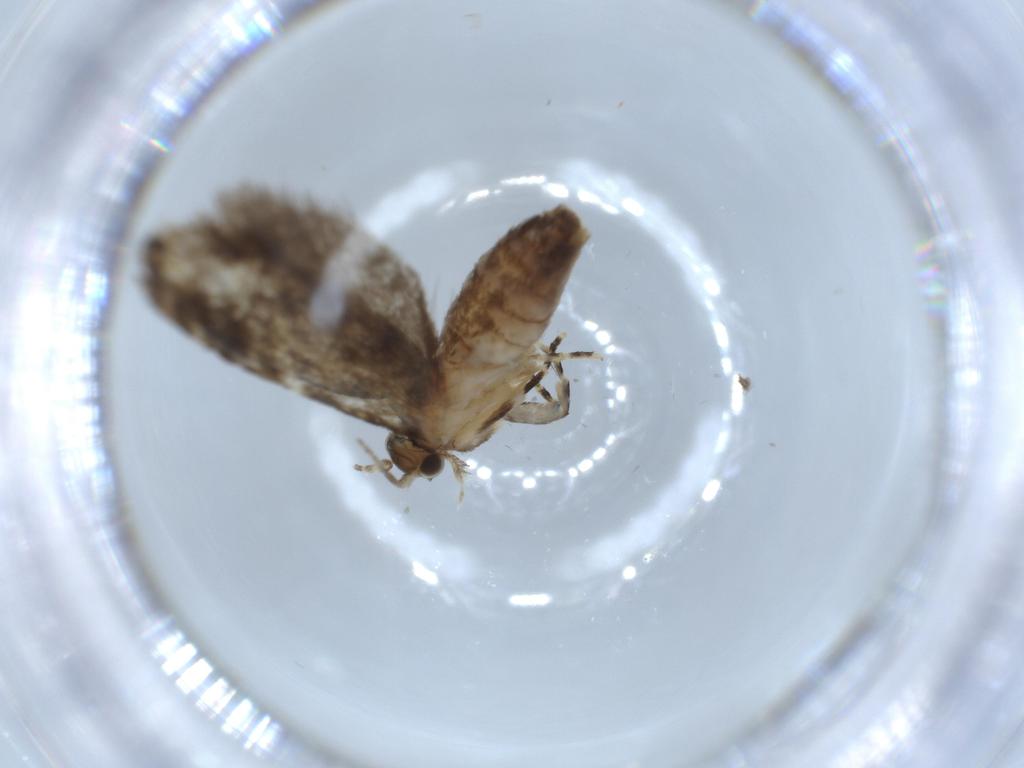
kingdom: Animalia
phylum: Arthropoda
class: Insecta
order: Lepidoptera
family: Tineidae
